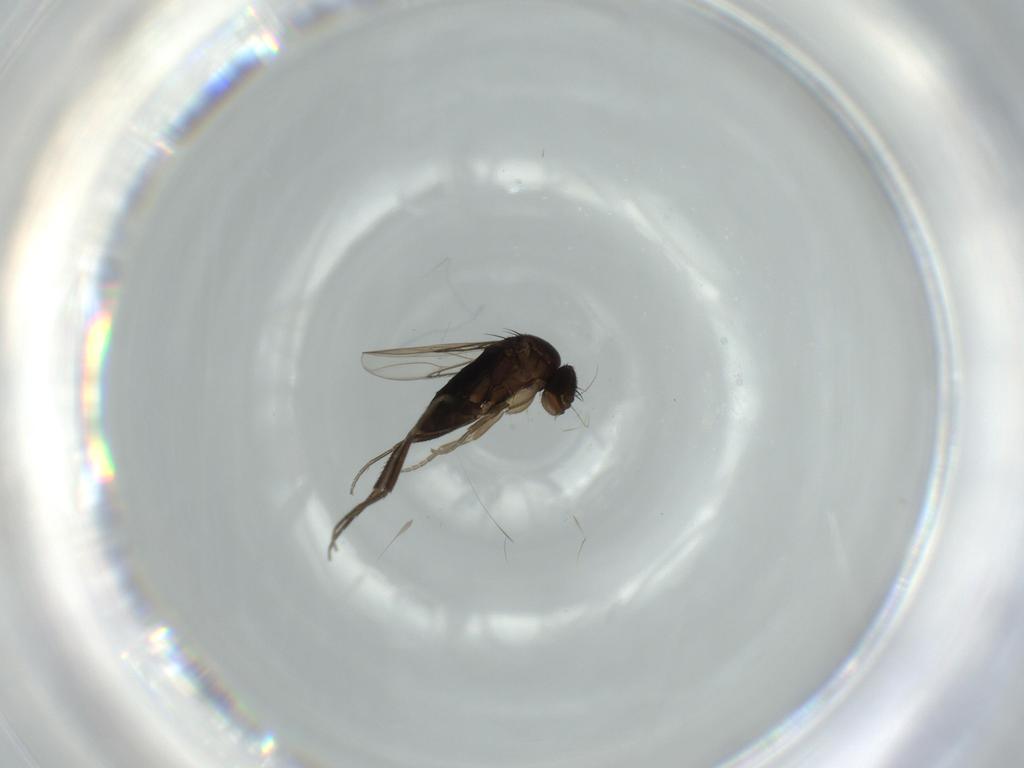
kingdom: Animalia
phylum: Arthropoda
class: Insecta
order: Diptera
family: Phoridae
